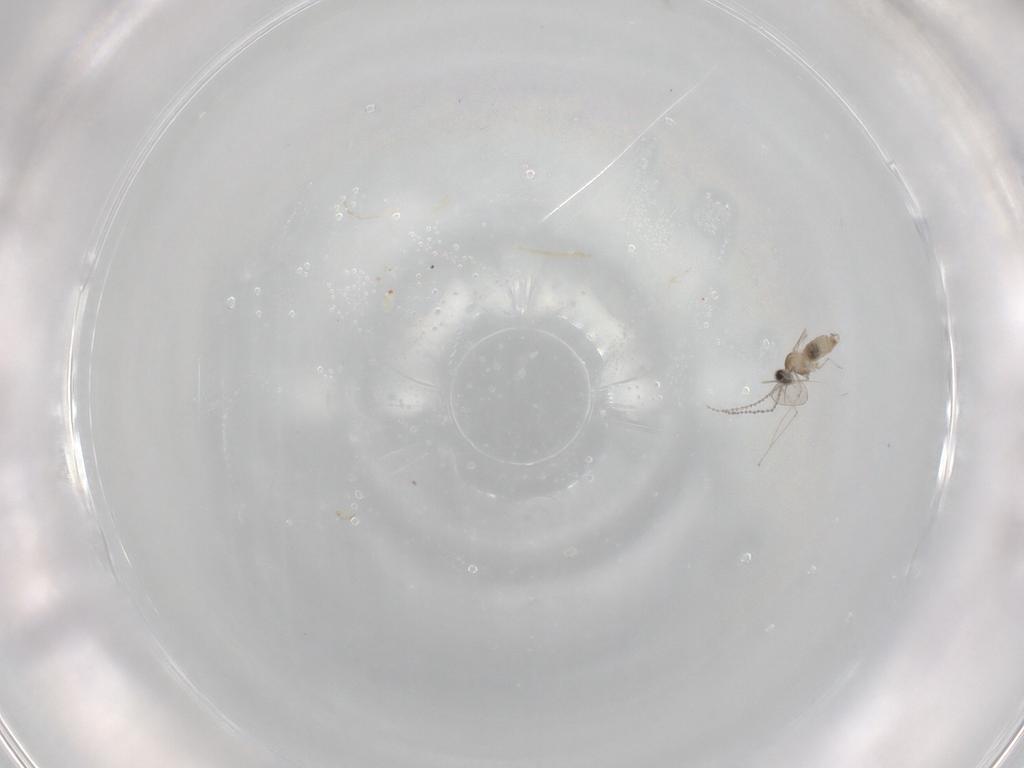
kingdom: Animalia
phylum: Arthropoda
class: Insecta
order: Diptera
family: Cecidomyiidae
